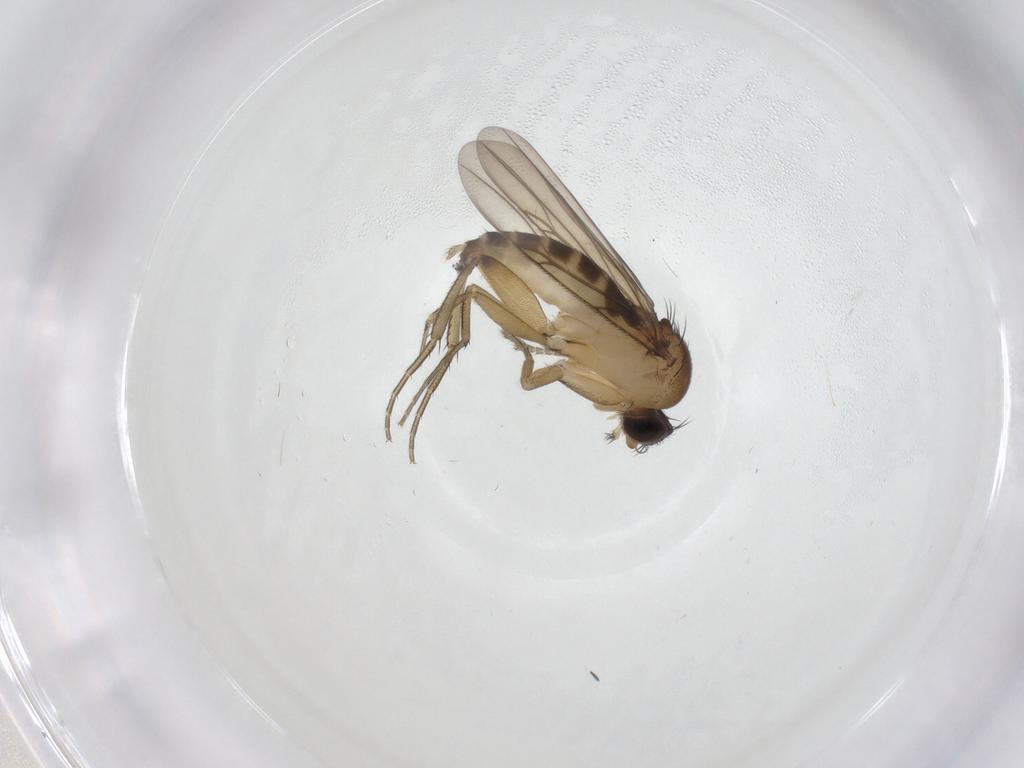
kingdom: Animalia
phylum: Arthropoda
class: Insecta
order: Diptera
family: Phoridae
